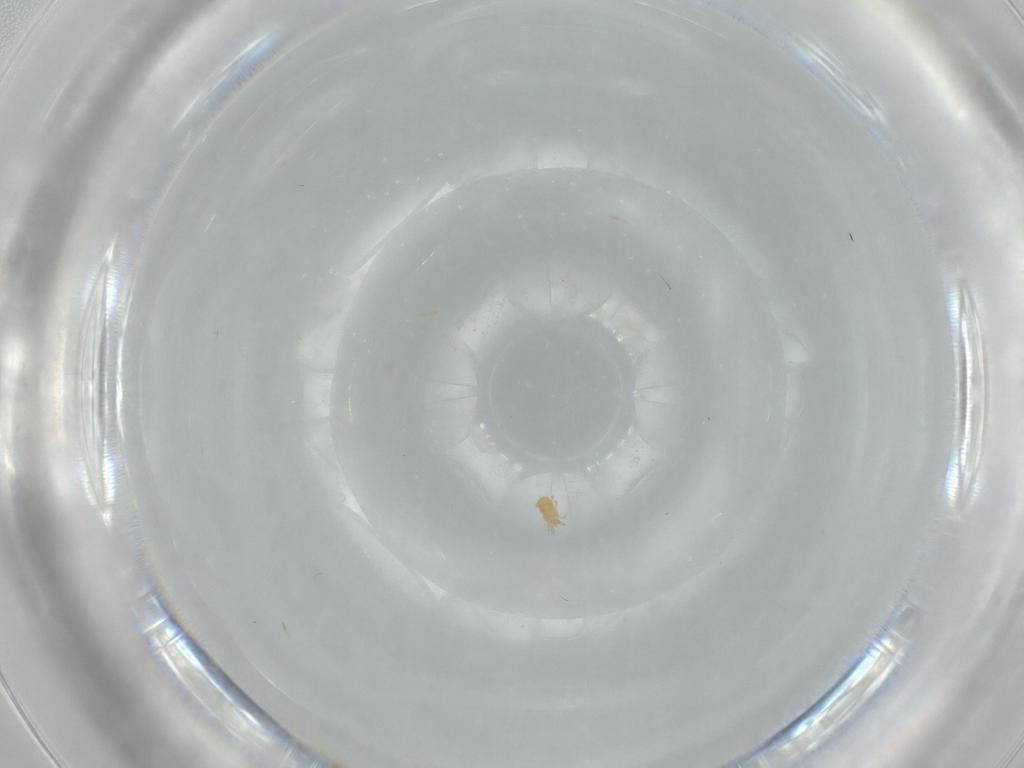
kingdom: Animalia
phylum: Arthropoda
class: Arachnida
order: Trombidiformes
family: Pygmephoridae
